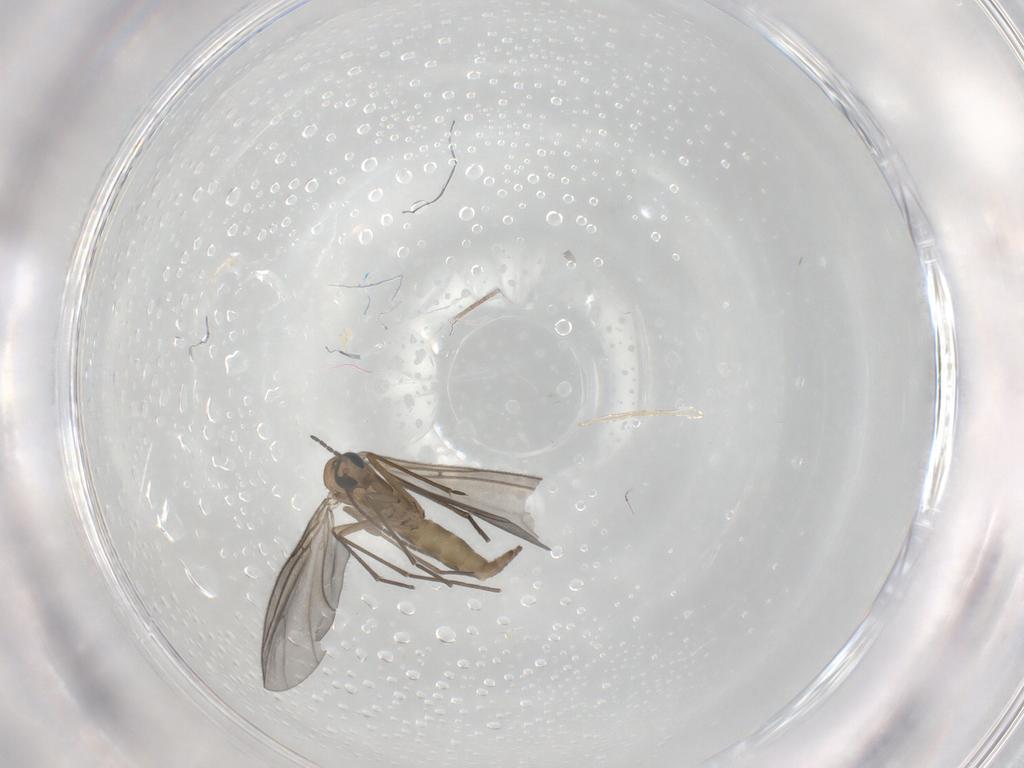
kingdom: Animalia
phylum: Arthropoda
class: Insecta
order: Diptera
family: Sciaridae
